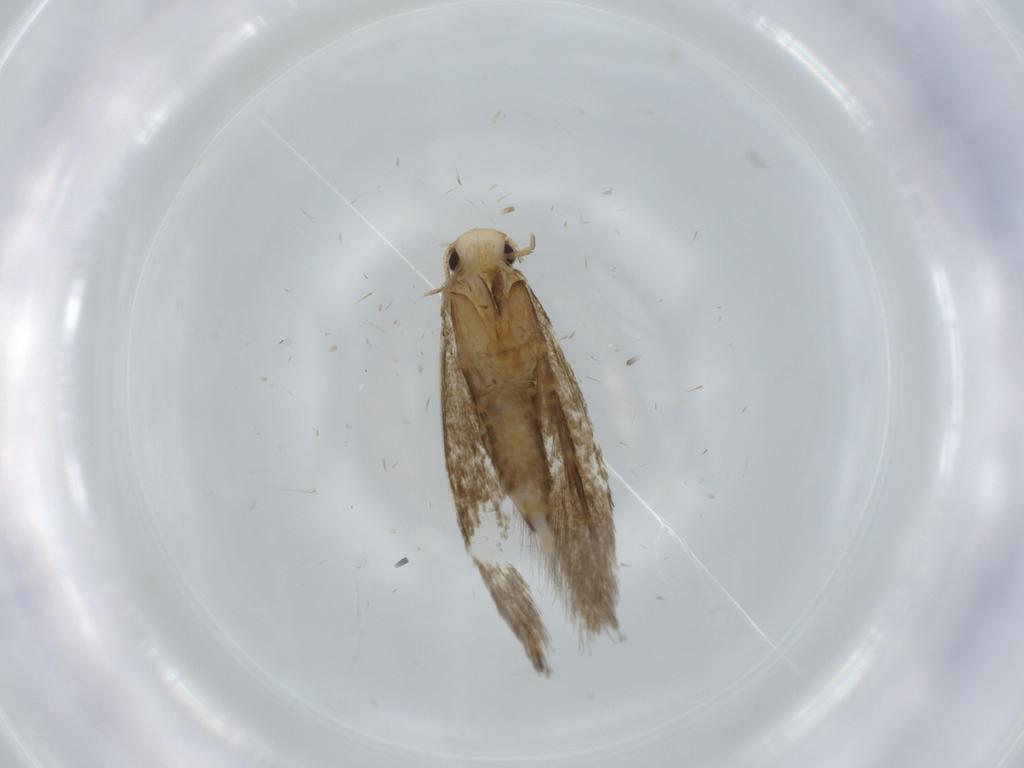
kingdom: Animalia
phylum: Arthropoda
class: Insecta
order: Lepidoptera
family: Tineidae
